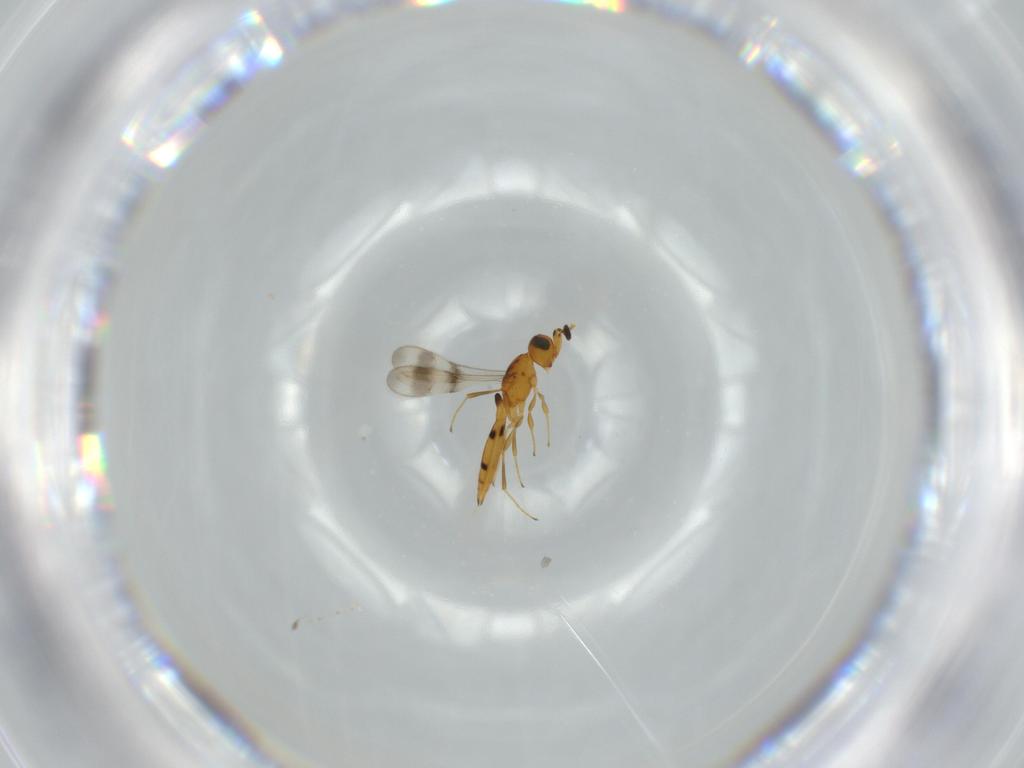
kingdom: Animalia
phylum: Arthropoda
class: Insecta
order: Hymenoptera
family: Scelionidae
